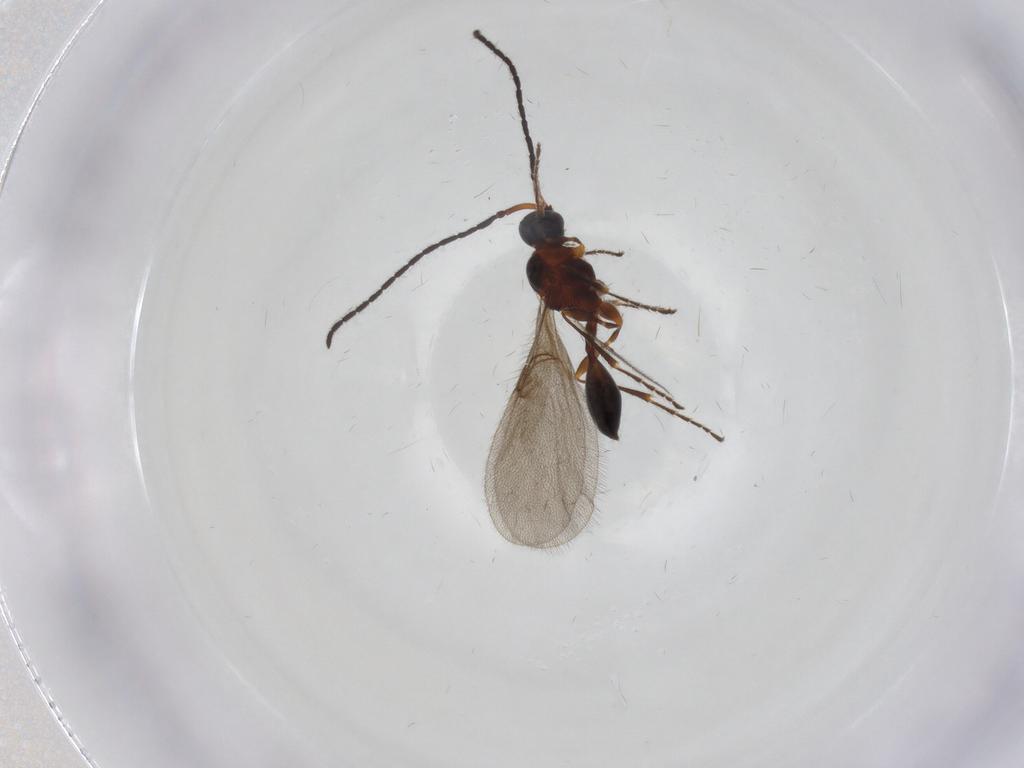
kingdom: Animalia
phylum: Arthropoda
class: Insecta
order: Hymenoptera
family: Diapriidae
